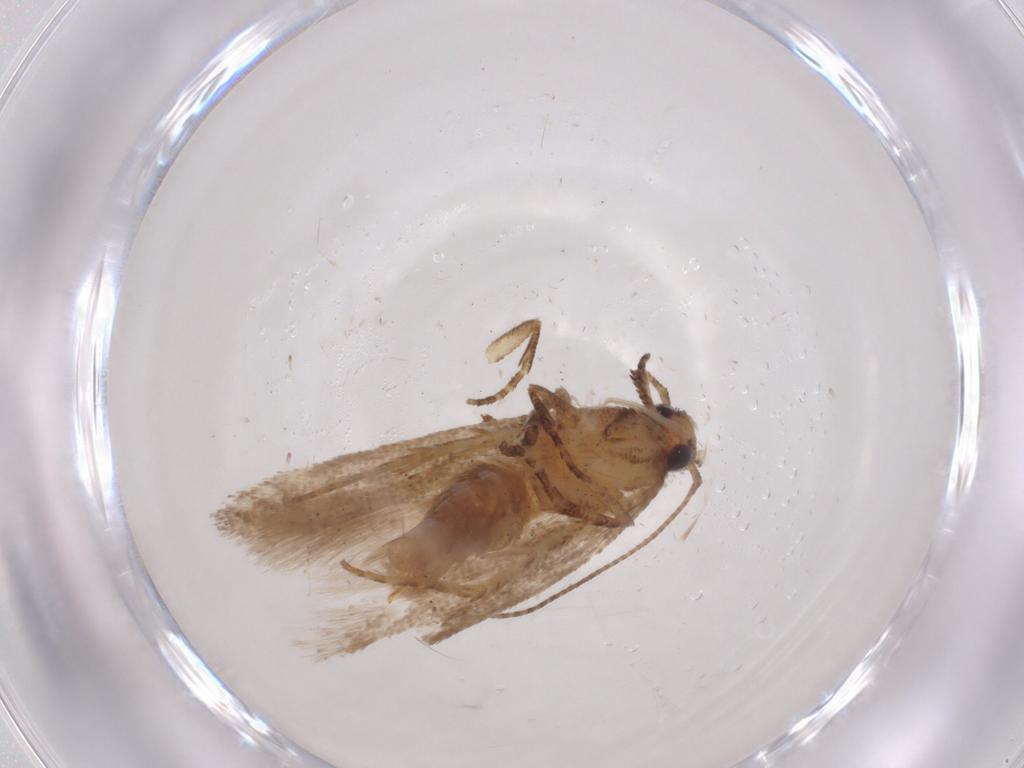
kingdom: Animalia
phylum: Arthropoda
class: Insecta
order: Lepidoptera
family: Gelechiidae
